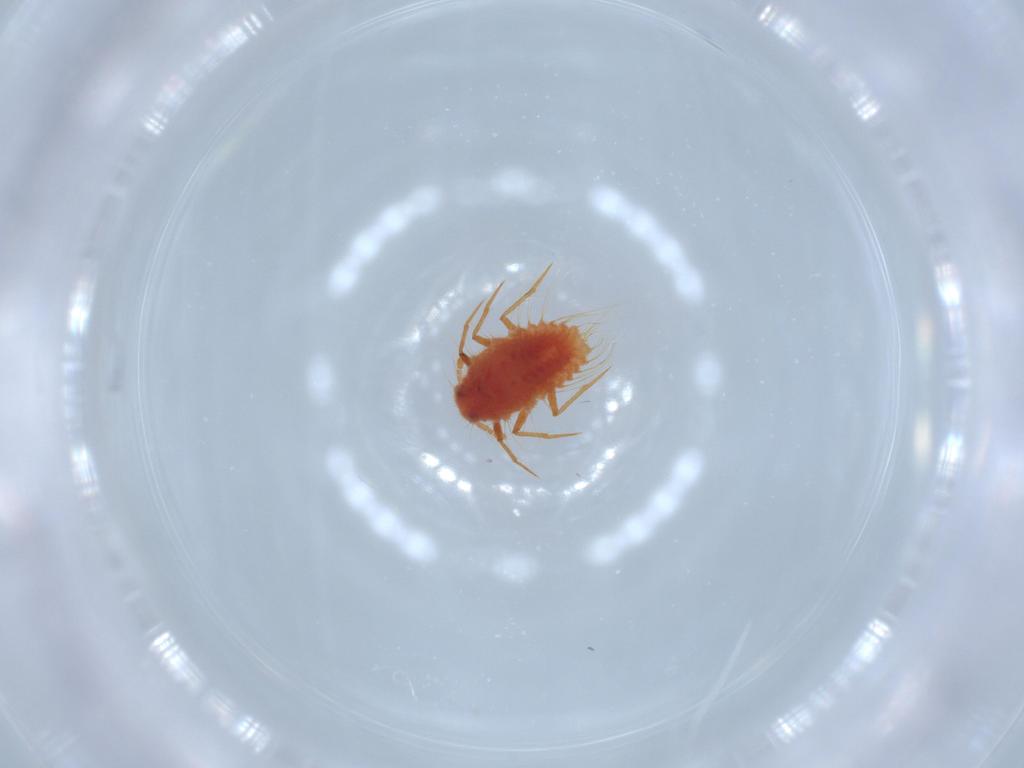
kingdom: Animalia
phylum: Arthropoda
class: Insecta
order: Hemiptera
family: Monophlebidae
